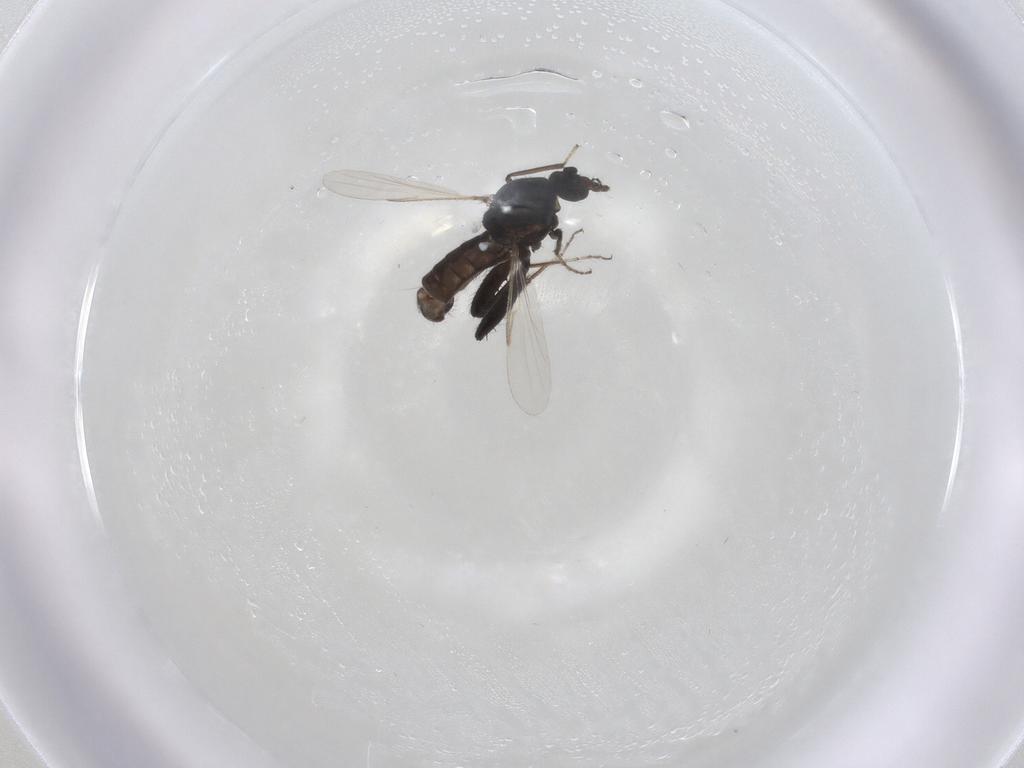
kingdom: Animalia
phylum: Arthropoda
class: Insecta
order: Diptera
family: Ceratopogonidae
